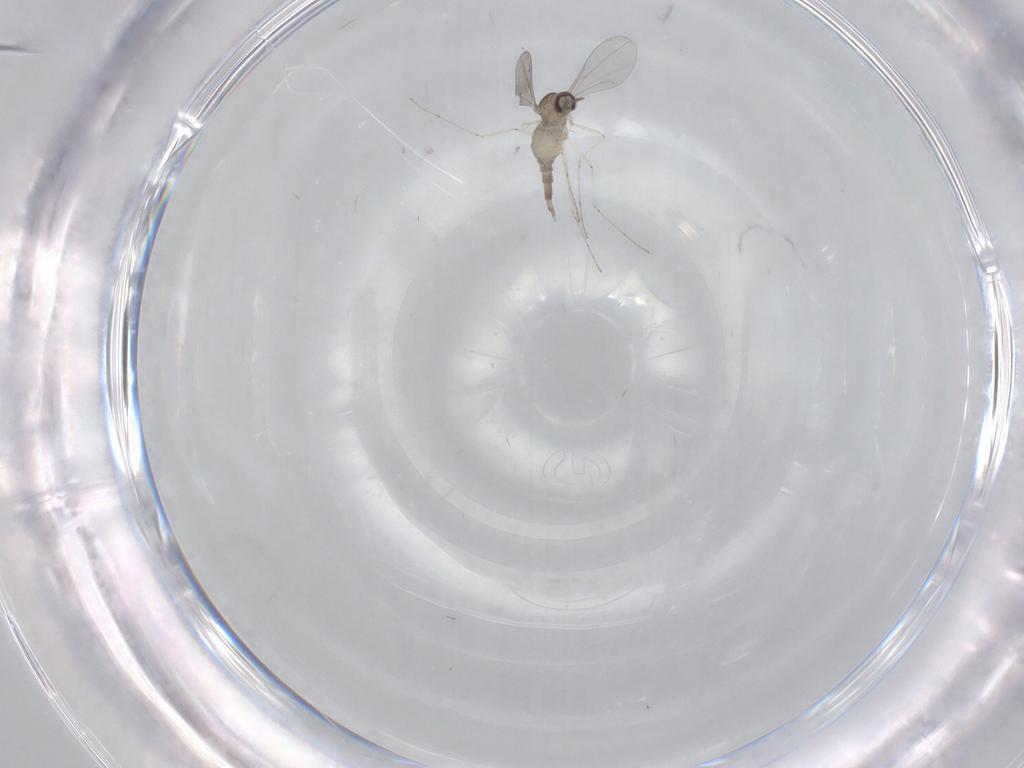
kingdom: Animalia
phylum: Arthropoda
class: Insecta
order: Diptera
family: Cecidomyiidae
